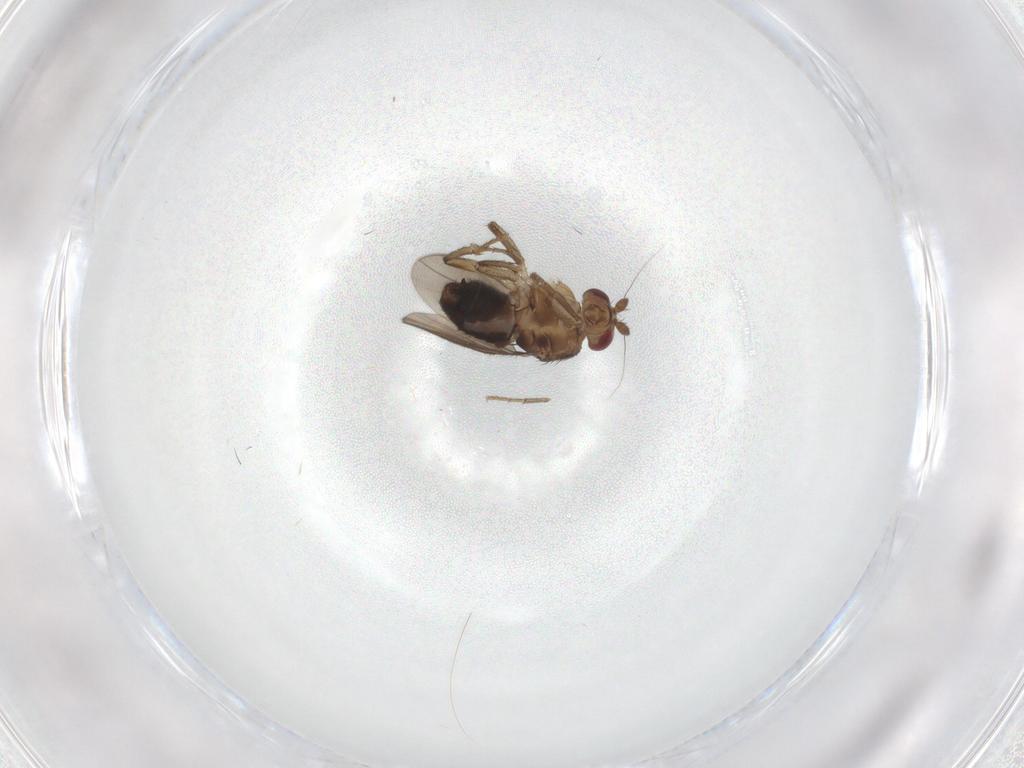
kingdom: Animalia
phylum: Arthropoda
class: Insecta
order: Diptera
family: Sphaeroceridae
